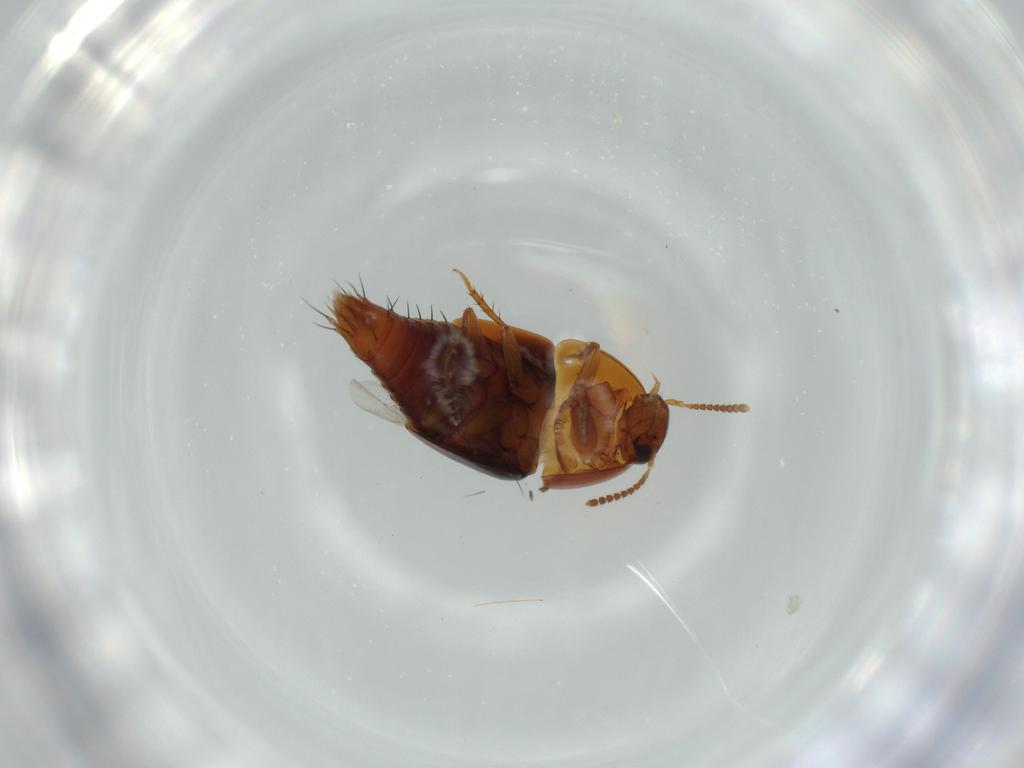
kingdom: Animalia
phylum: Arthropoda
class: Insecta
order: Coleoptera
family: Staphylinidae
